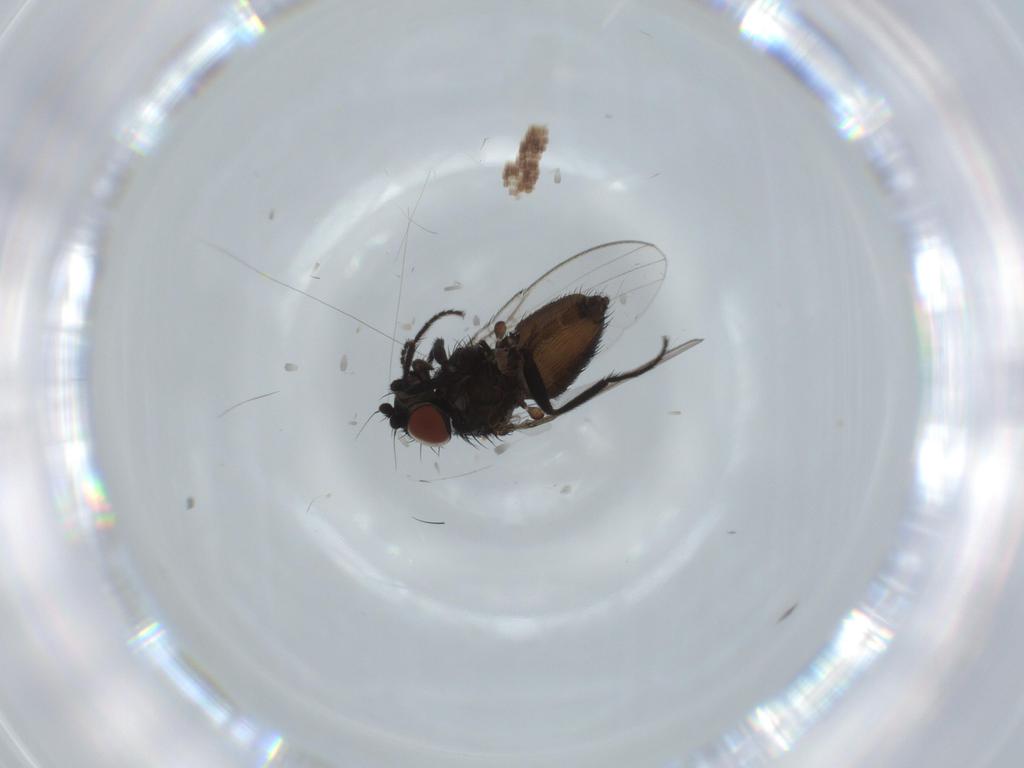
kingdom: Animalia
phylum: Arthropoda
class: Insecta
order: Diptera
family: Milichiidae
